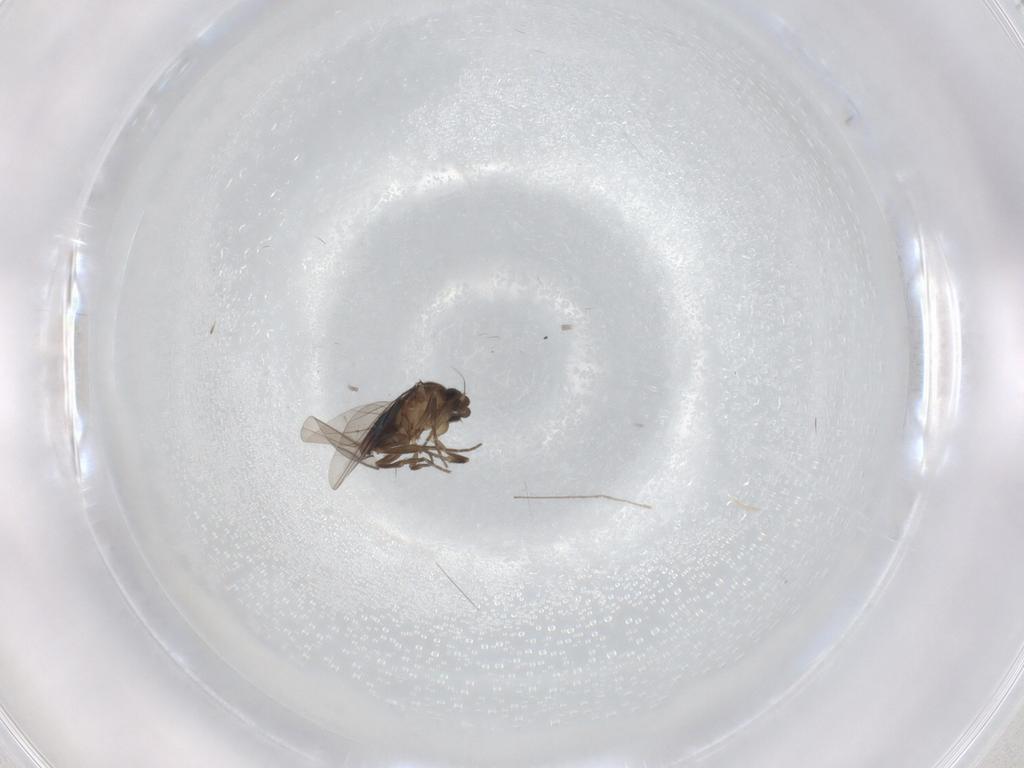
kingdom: Animalia
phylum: Arthropoda
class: Insecta
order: Diptera
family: Chironomidae
